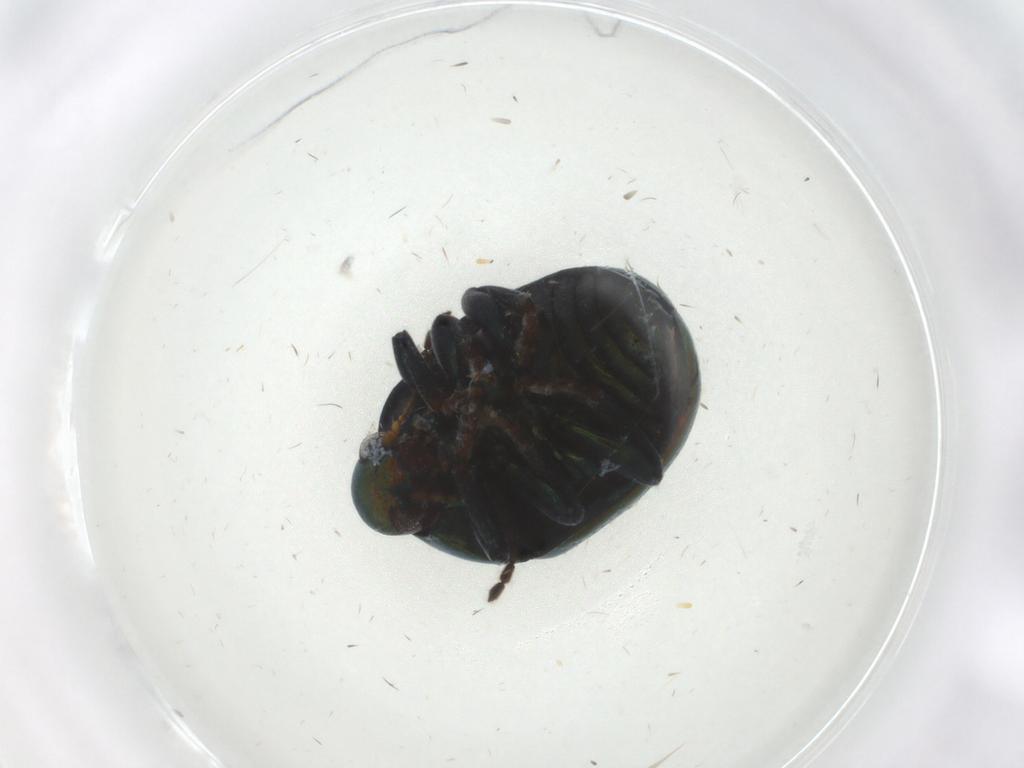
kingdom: Animalia
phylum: Arthropoda
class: Insecta
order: Coleoptera
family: Chrysomelidae
